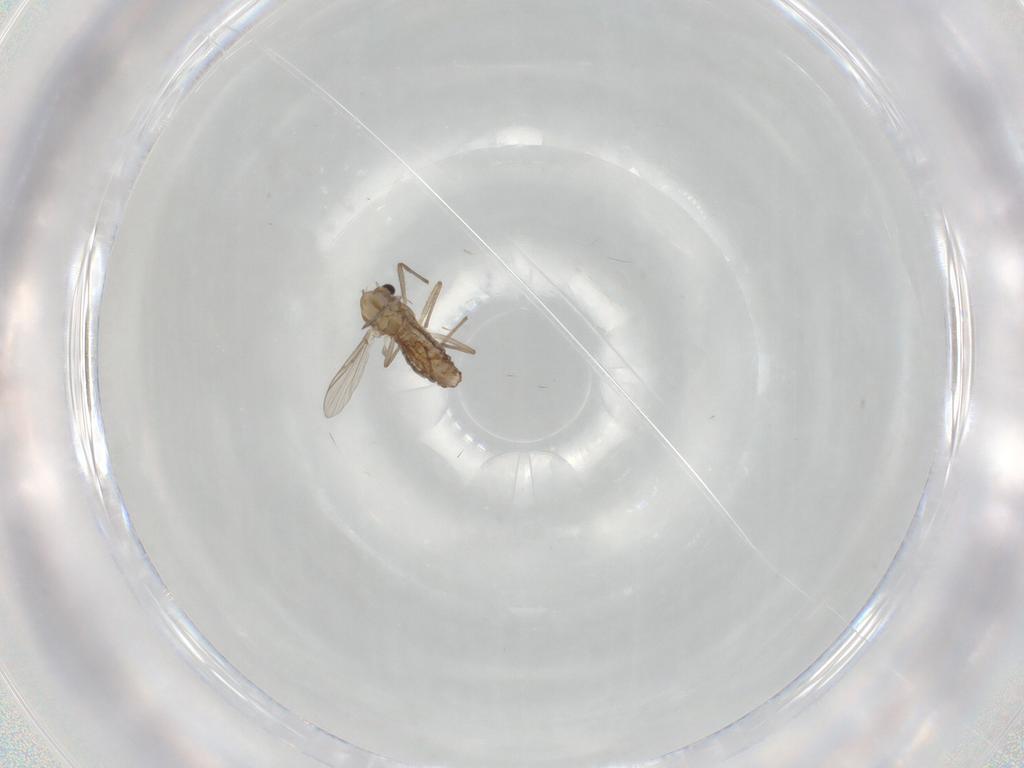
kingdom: Animalia
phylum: Arthropoda
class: Insecta
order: Diptera
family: Chironomidae
